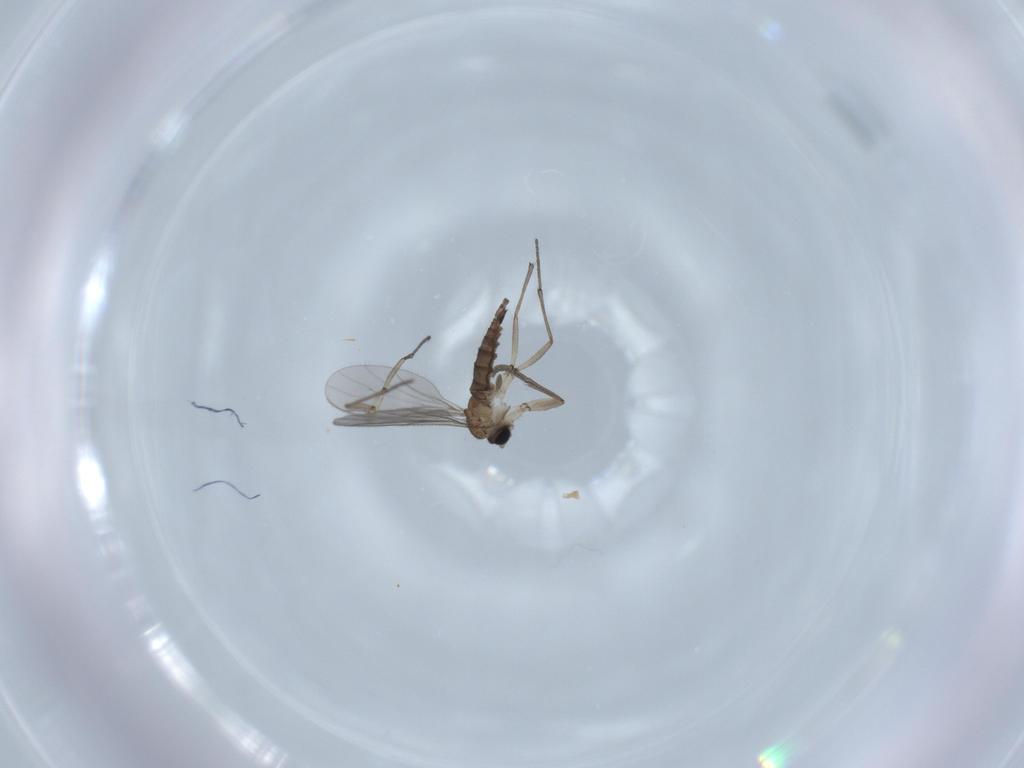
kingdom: Animalia
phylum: Arthropoda
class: Insecta
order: Diptera
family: Sciaridae
